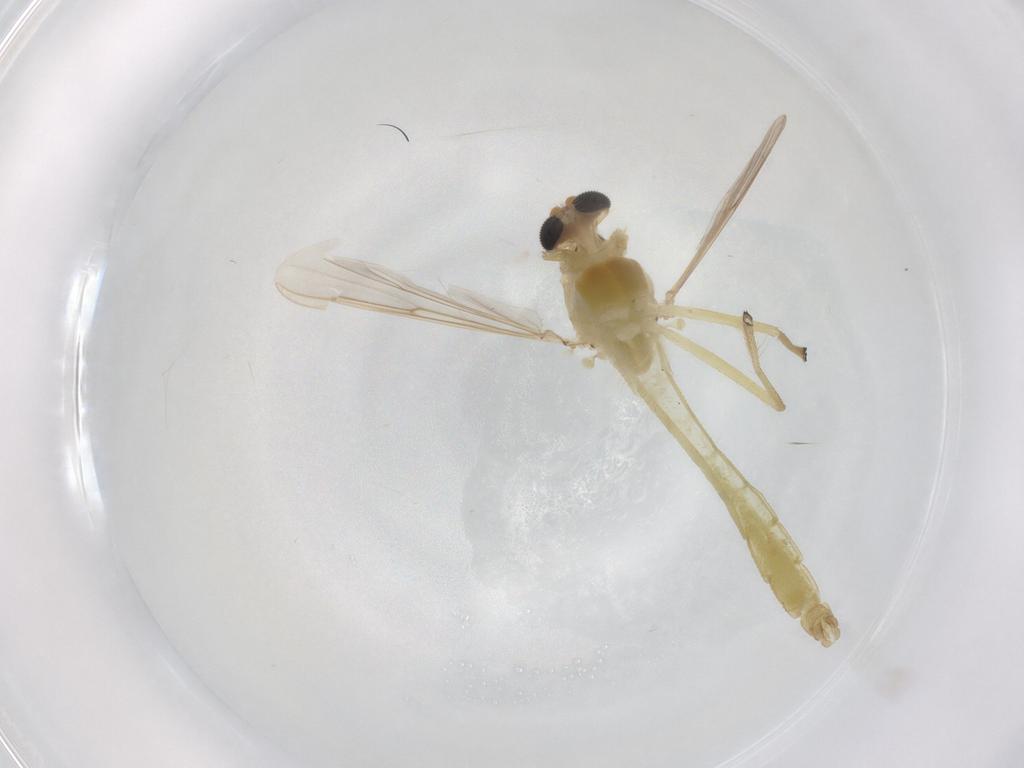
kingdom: Animalia
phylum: Arthropoda
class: Insecta
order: Diptera
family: Chironomidae
